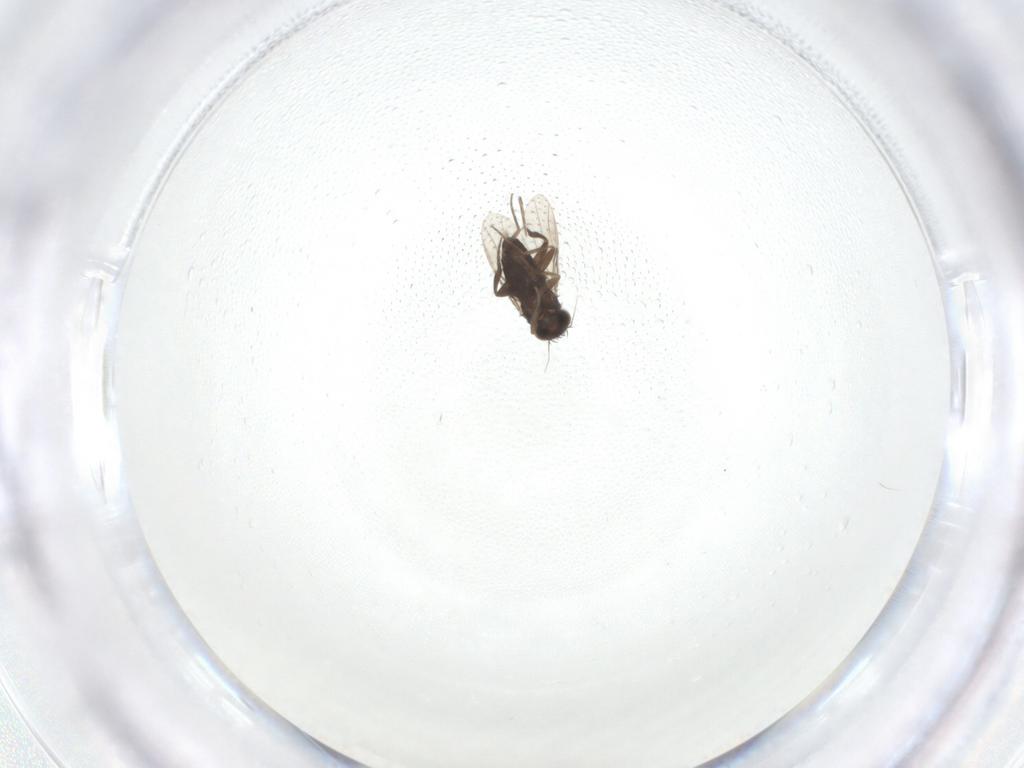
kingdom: Animalia
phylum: Arthropoda
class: Insecta
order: Diptera
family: Phoridae
